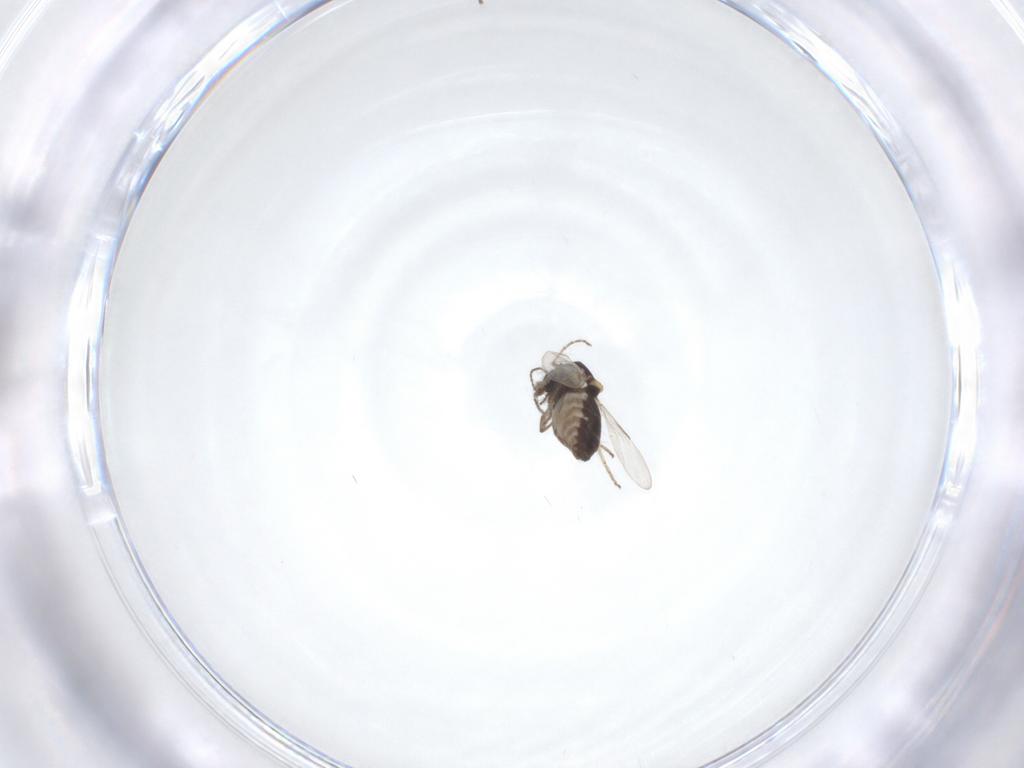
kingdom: Animalia
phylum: Arthropoda
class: Insecta
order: Diptera
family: Ceratopogonidae
